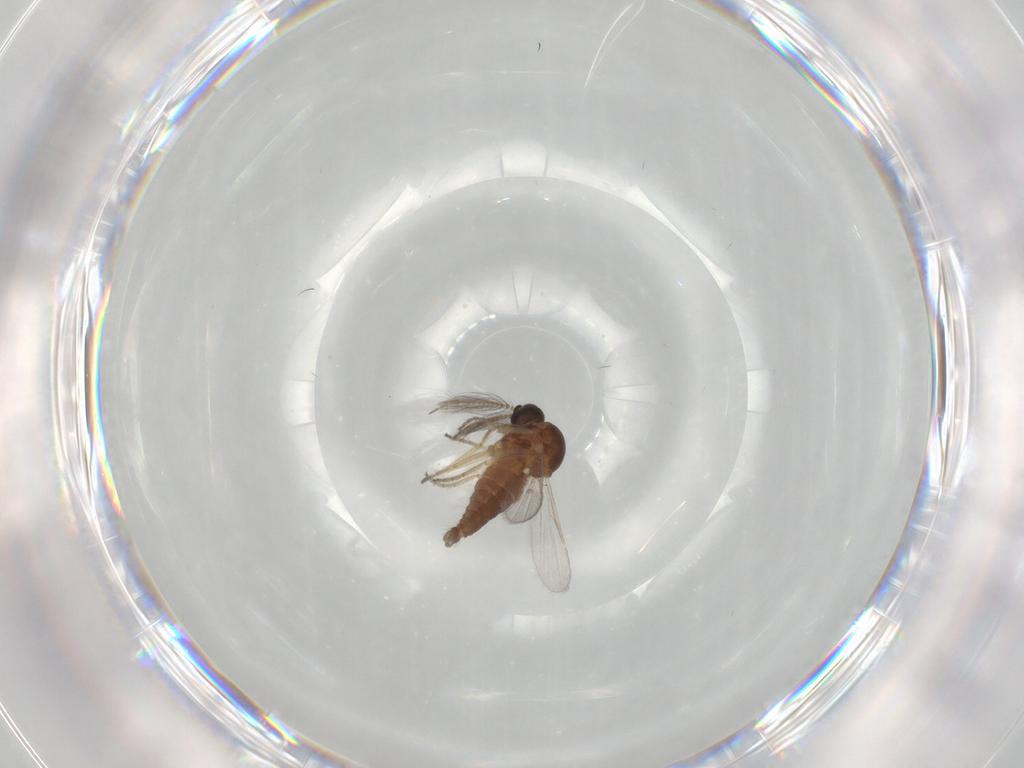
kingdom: Animalia
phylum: Arthropoda
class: Insecta
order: Diptera
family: Ceratopogonidae
